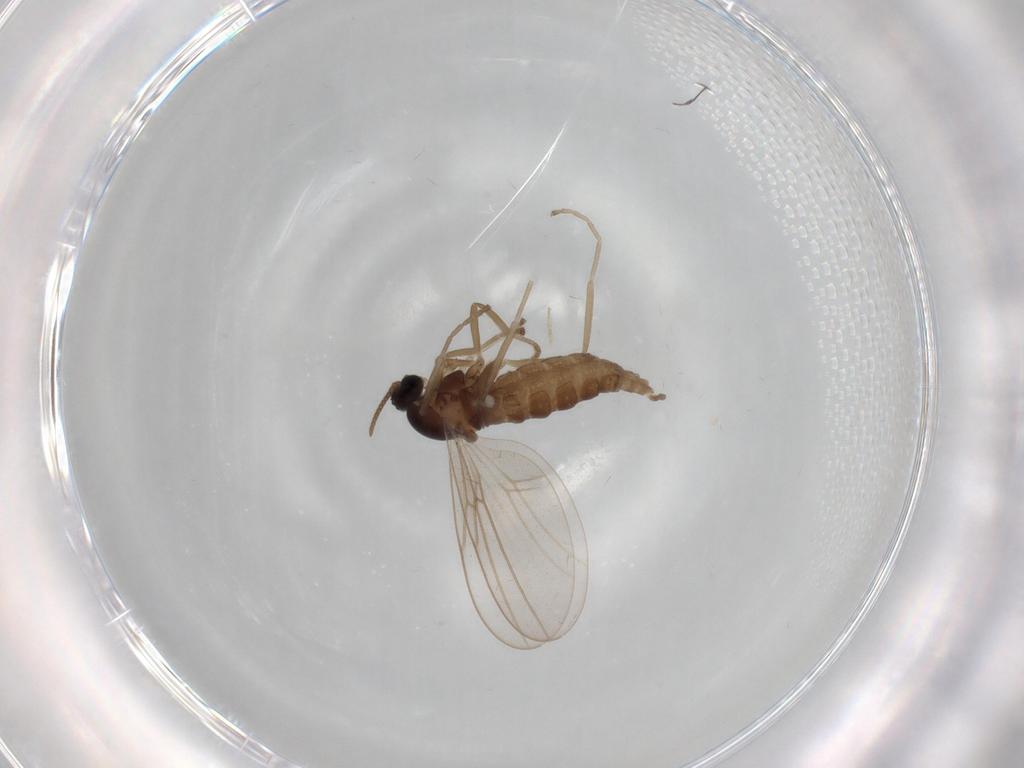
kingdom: Animalia
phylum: Arthropoda
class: Insecta
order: Diptera
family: Cecidomyiidae
